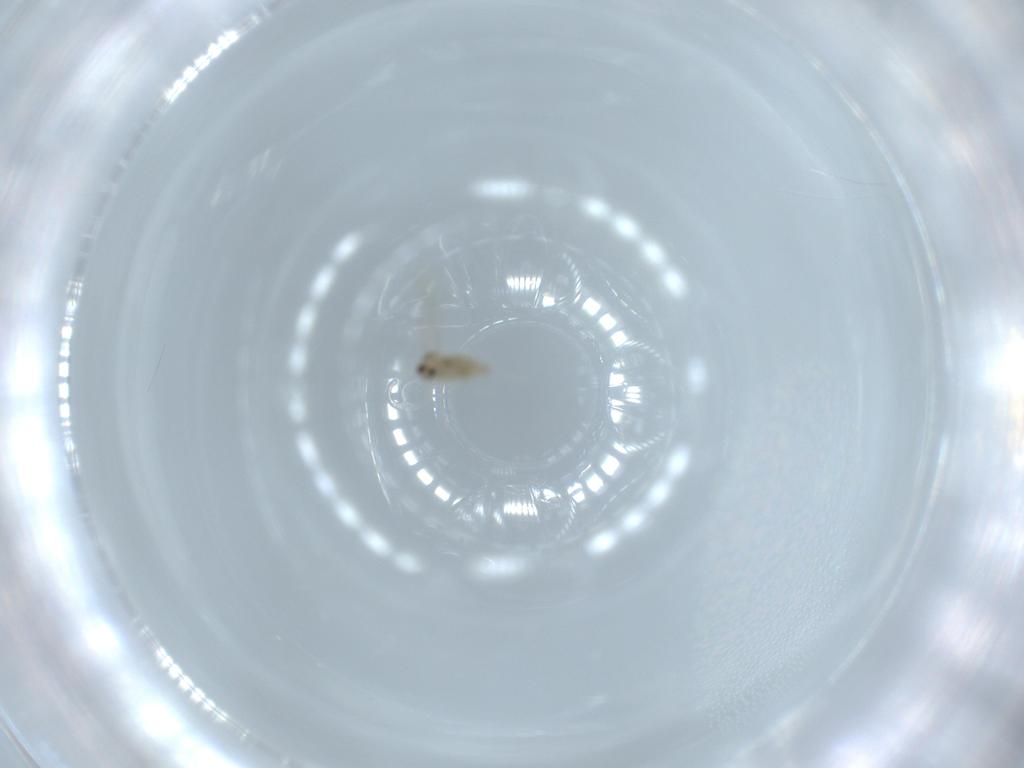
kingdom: Animalia
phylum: Arthropoda
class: Insecta
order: Diptera
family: Cecidomyiidae
